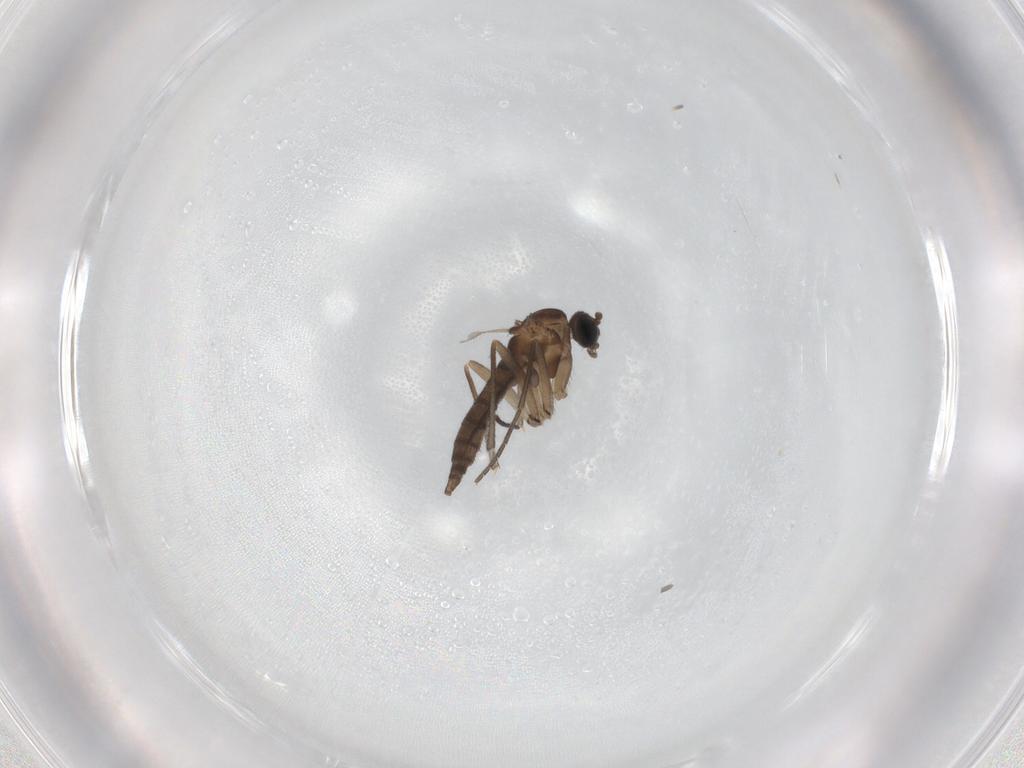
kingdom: Animalia
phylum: Arthropoda
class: Insecta
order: Diptera
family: Sciaridae
